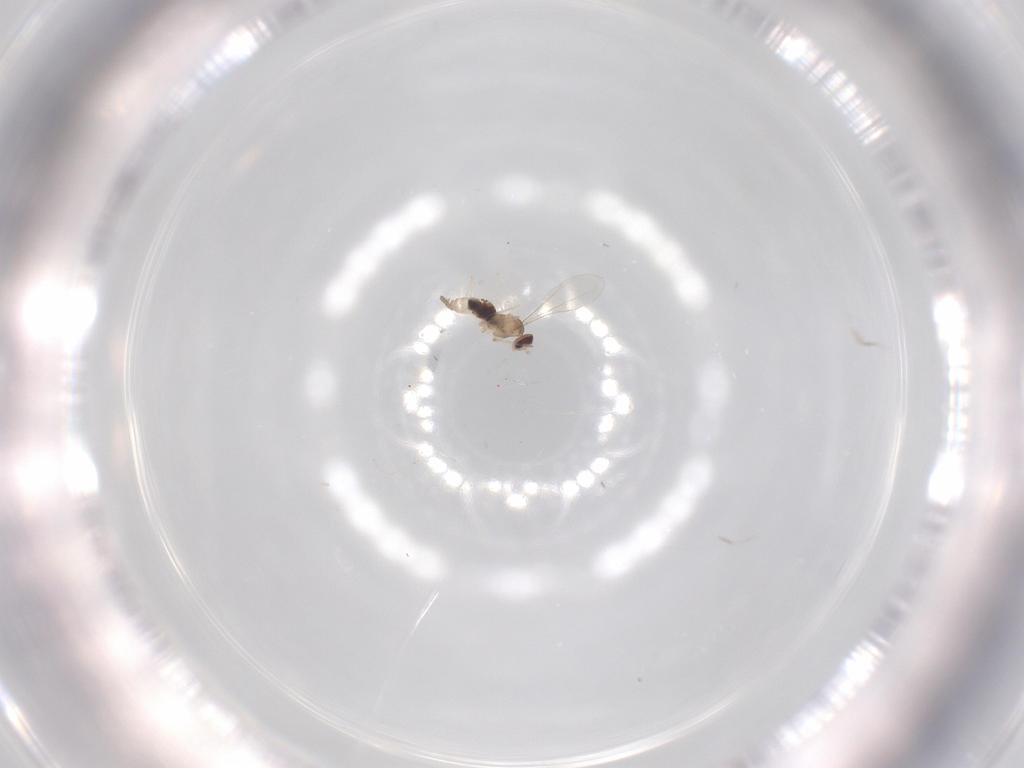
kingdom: Animalia
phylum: Arthropoda
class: Insecta
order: Diptera
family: Cecidomyiidae
